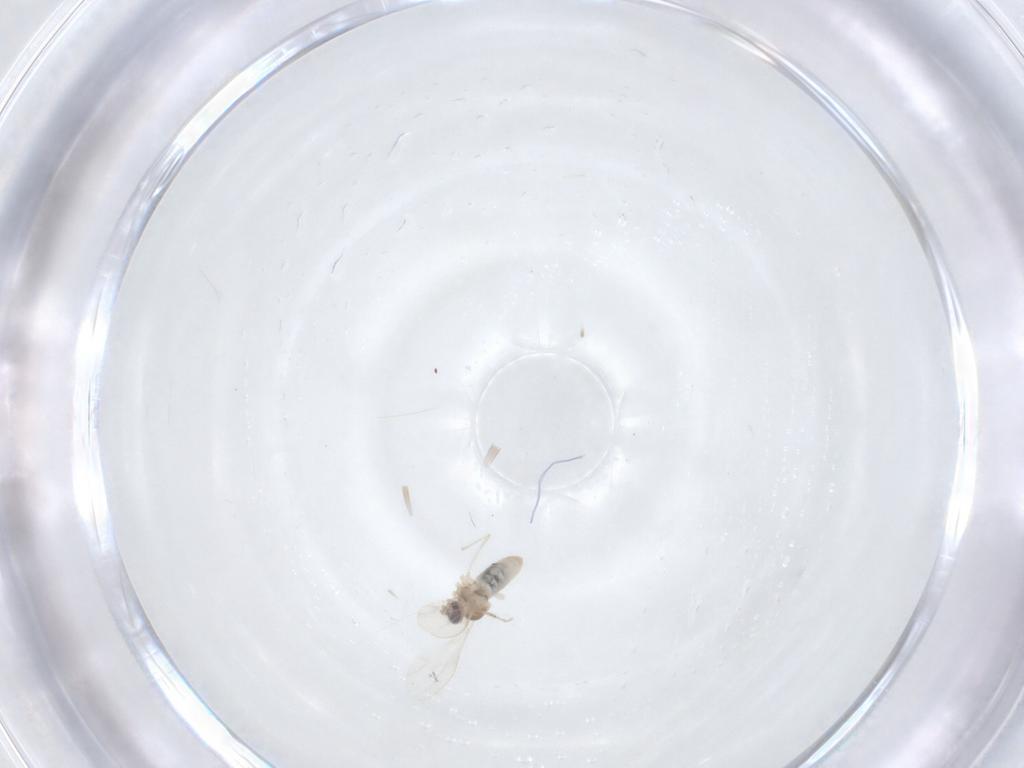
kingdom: Animalia
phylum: Arthropoda
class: Insecta
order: Diptera
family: Cecidomyiidae
